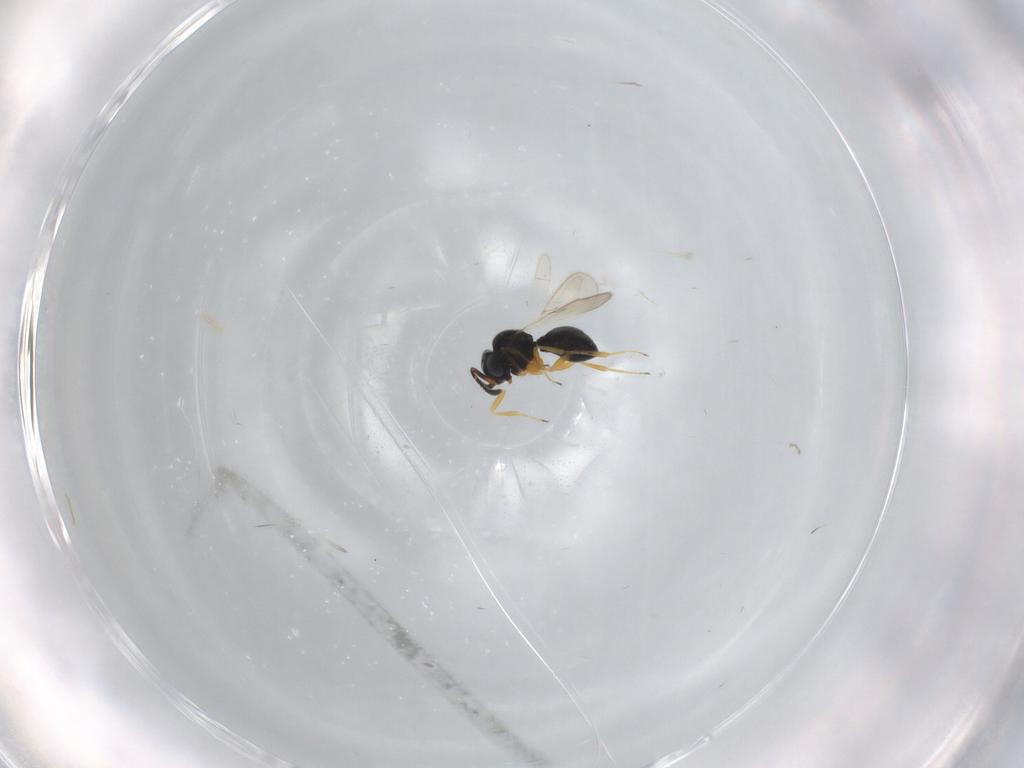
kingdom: Animalia
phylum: Arthropoda
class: Insecta
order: Hymenoptera
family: Scelionidae
